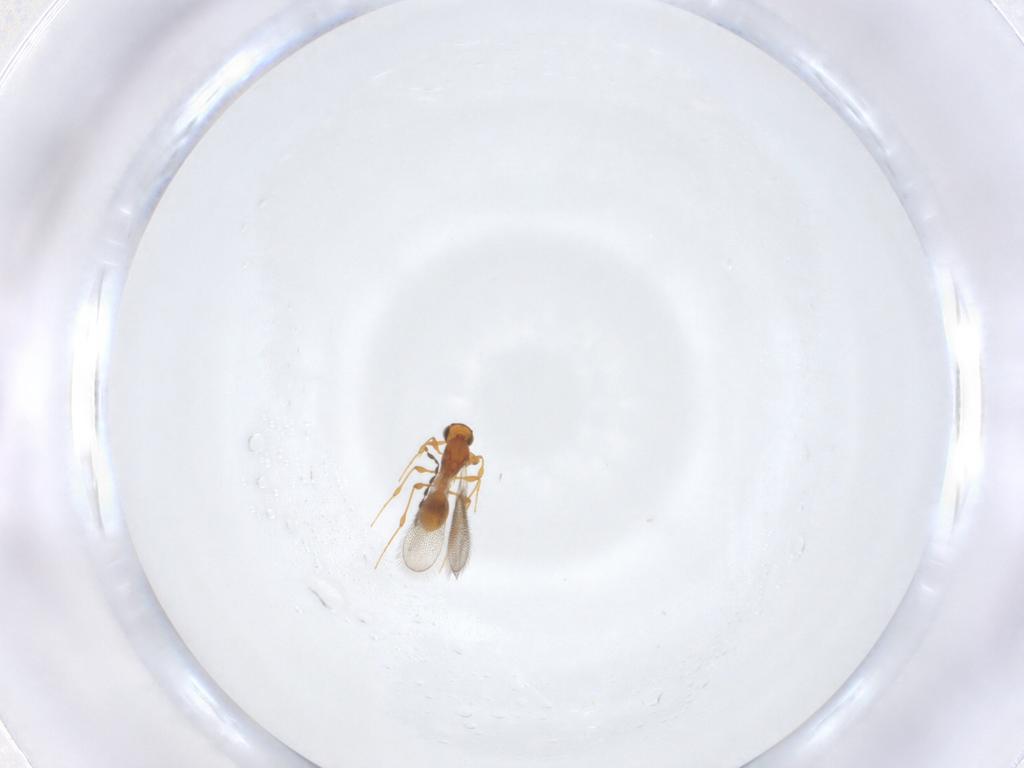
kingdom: Animalia
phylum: Arthropoda
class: Insecta
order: Hymenoptera
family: Platygastridae
